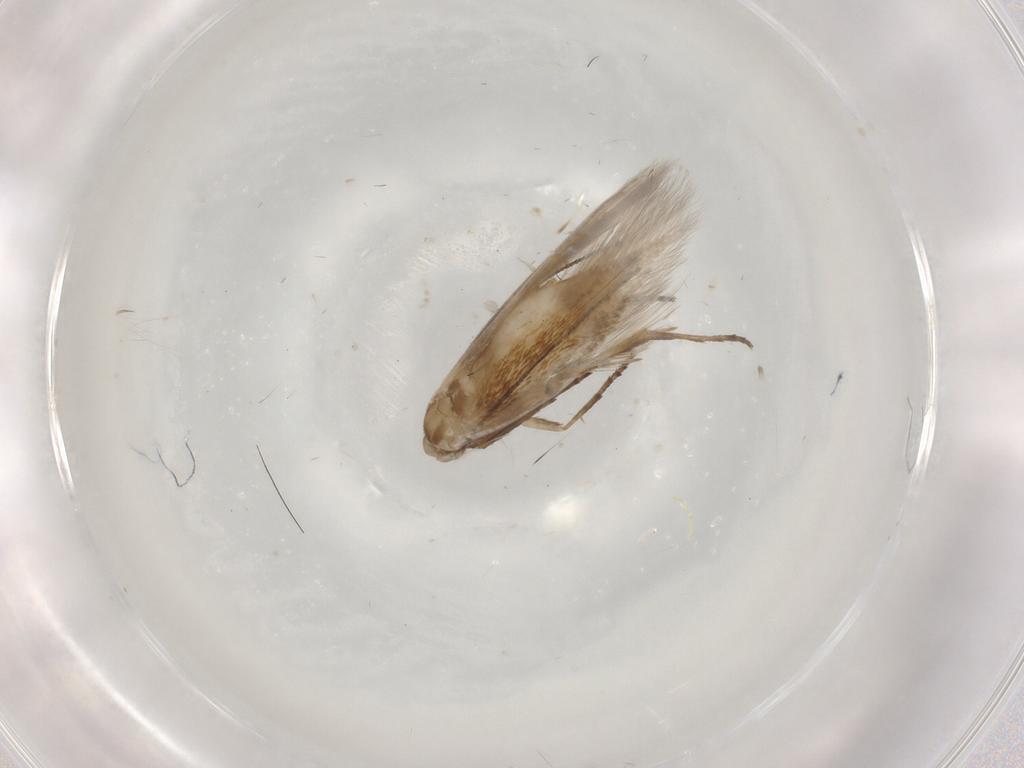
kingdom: Animalia
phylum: Arthropoda
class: Insecta
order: Lepidoptera
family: Bucculatricidae
